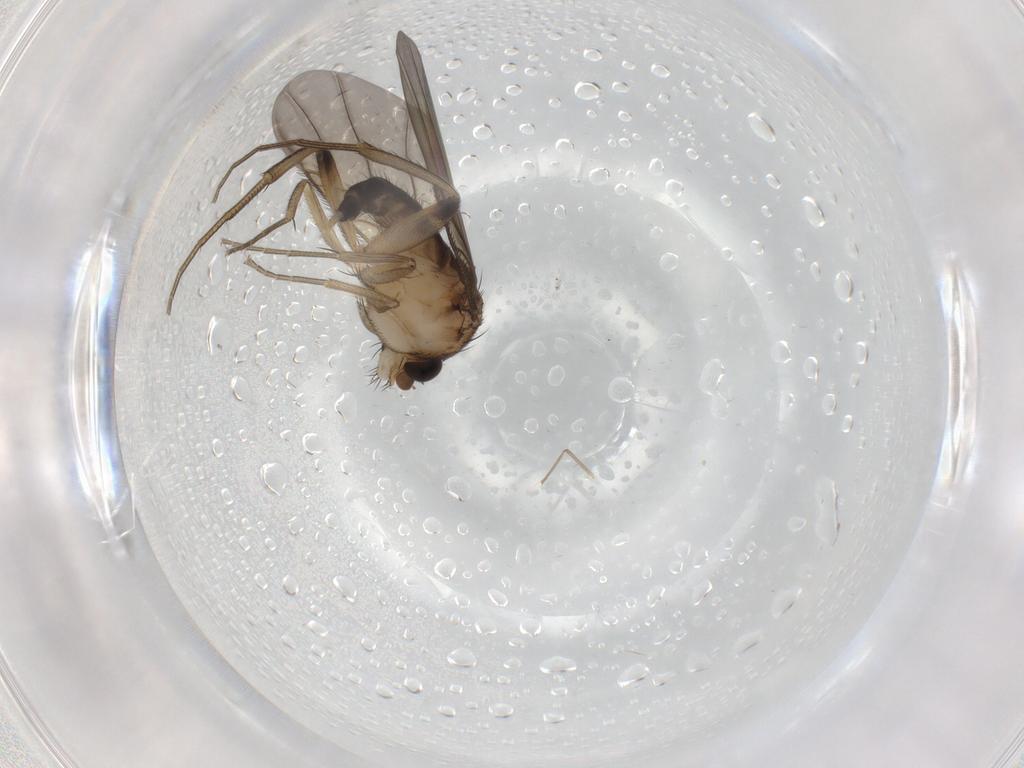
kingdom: Animalia
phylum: Arthropoda
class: Insecta
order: Diptera
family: Phoridae
